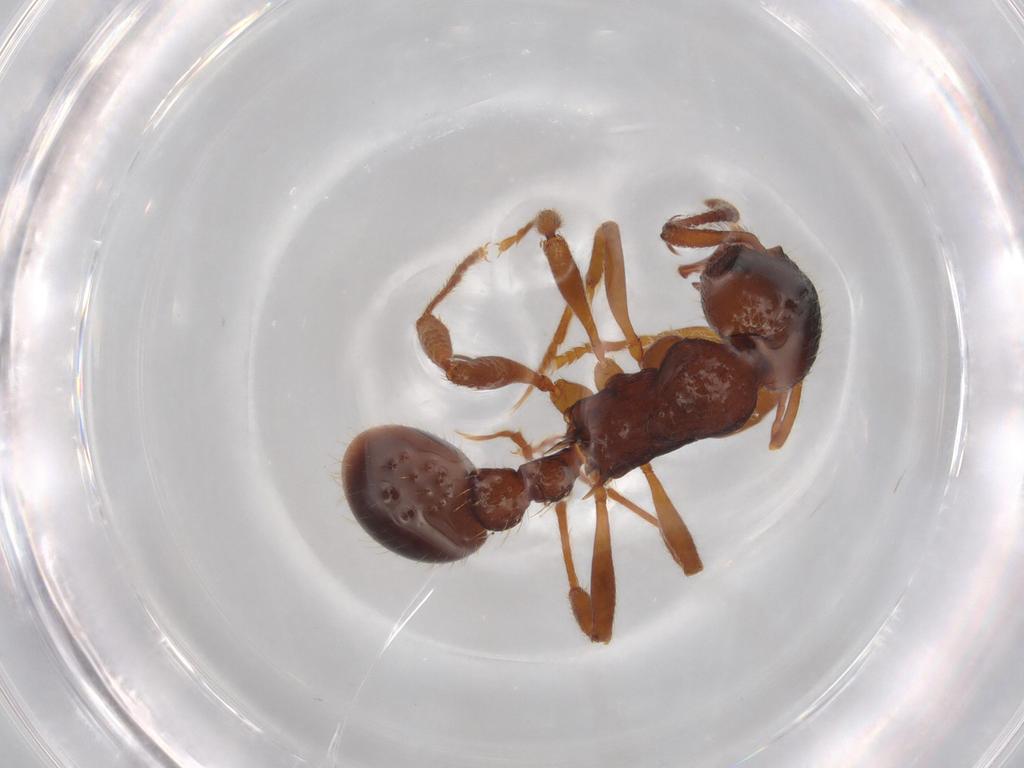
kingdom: Animalia
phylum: Arthropoda
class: Insecta
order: Hymenoptera
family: Formicidae
